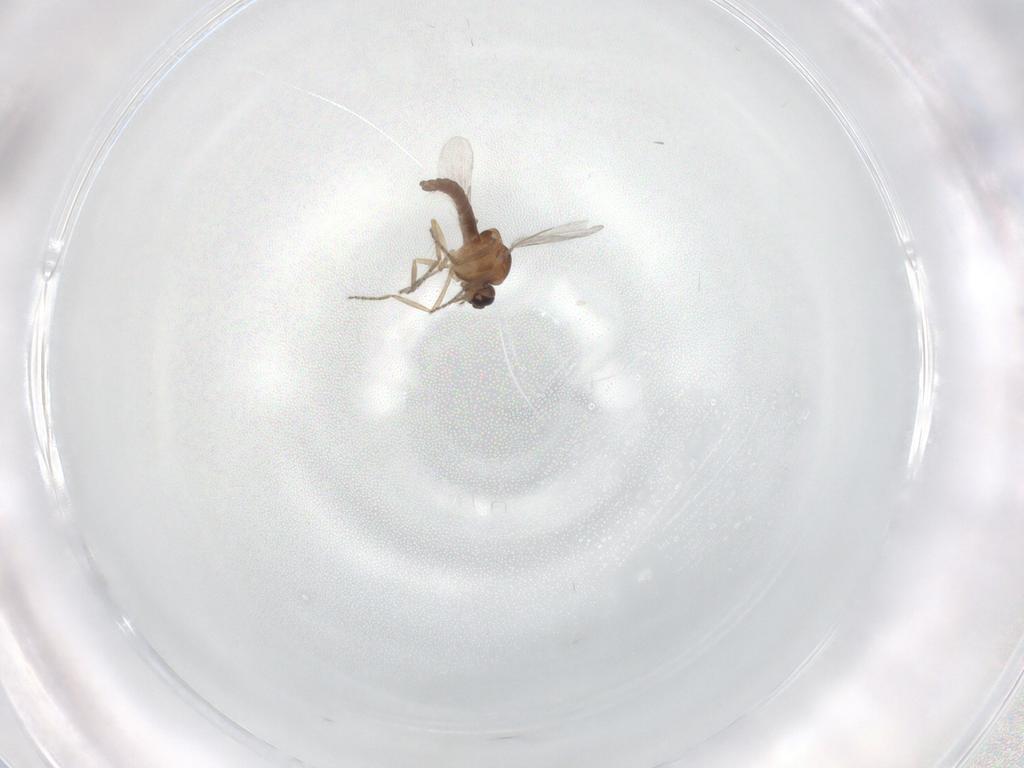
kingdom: Animalia
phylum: Arthropoda
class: Insecta
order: Diptera
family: Ceratopogonidae
